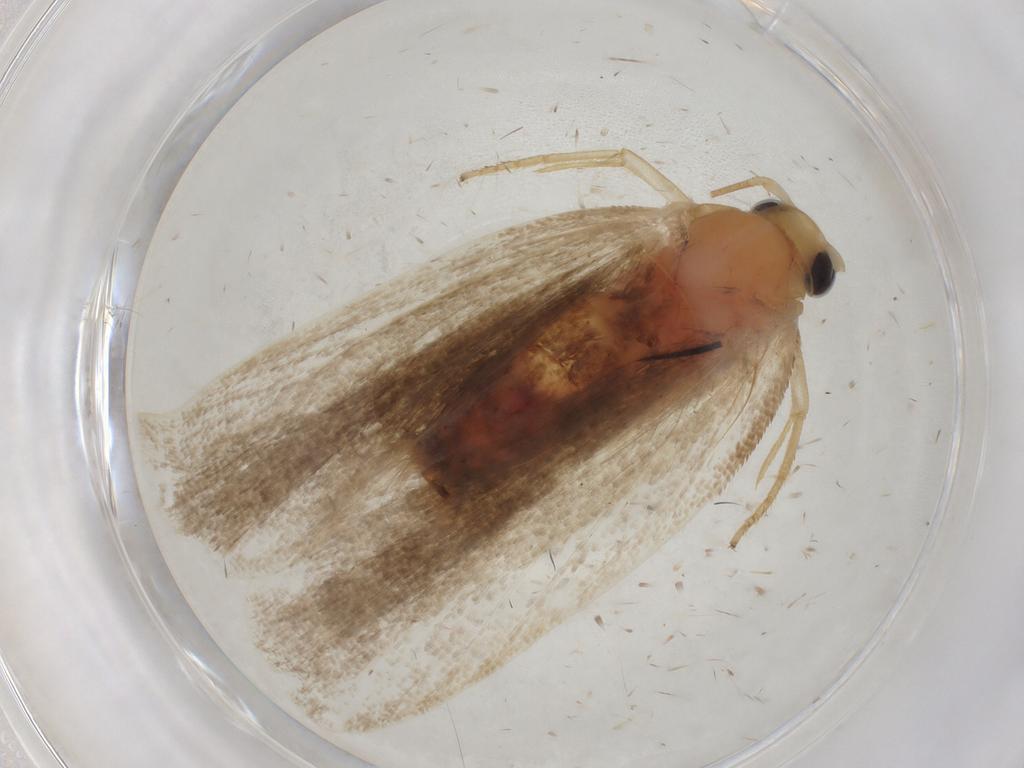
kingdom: Animalia
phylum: Arthropoda
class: Insecta
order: Lepidoptera
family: Depressariidae
